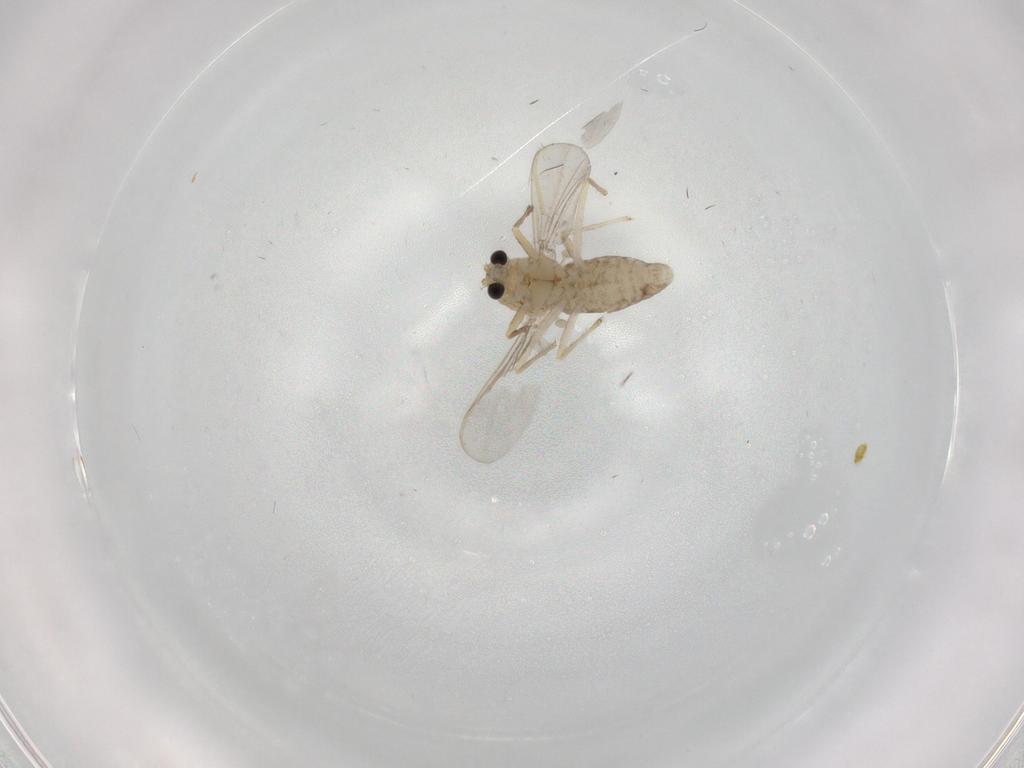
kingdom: Animalia
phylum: Arthropoda
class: Insecta
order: Diptera
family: Chironomidae
